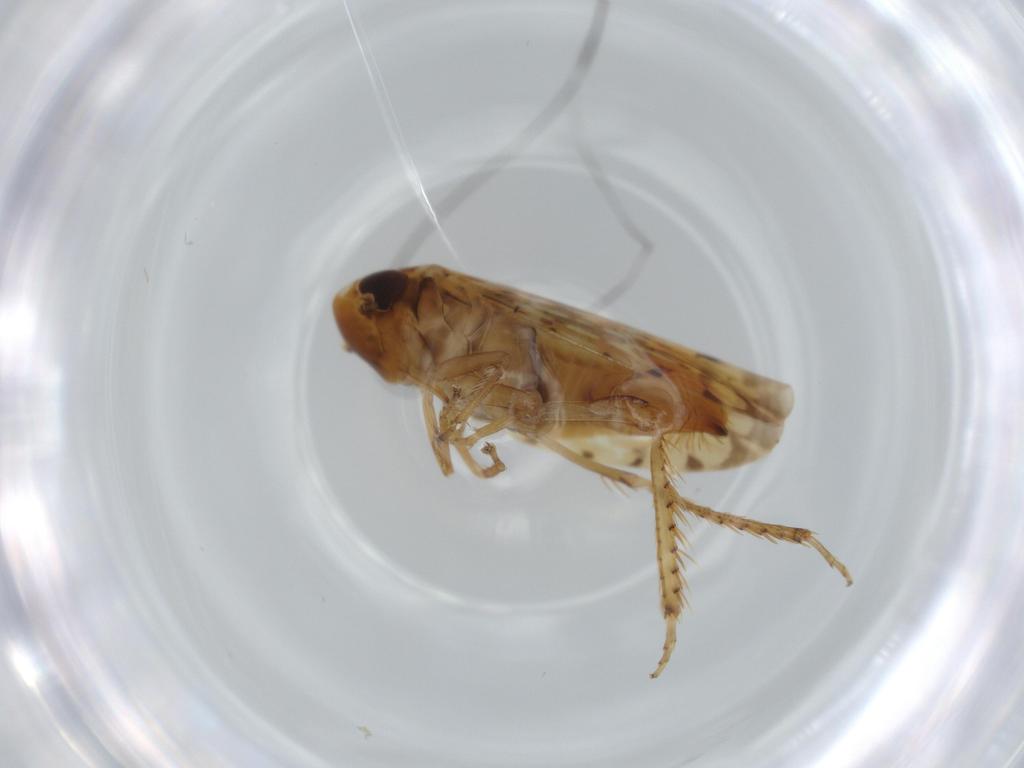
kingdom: Animalia
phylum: Arthropoda
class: Insecta
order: Hemiptera
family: Cicadellidae
